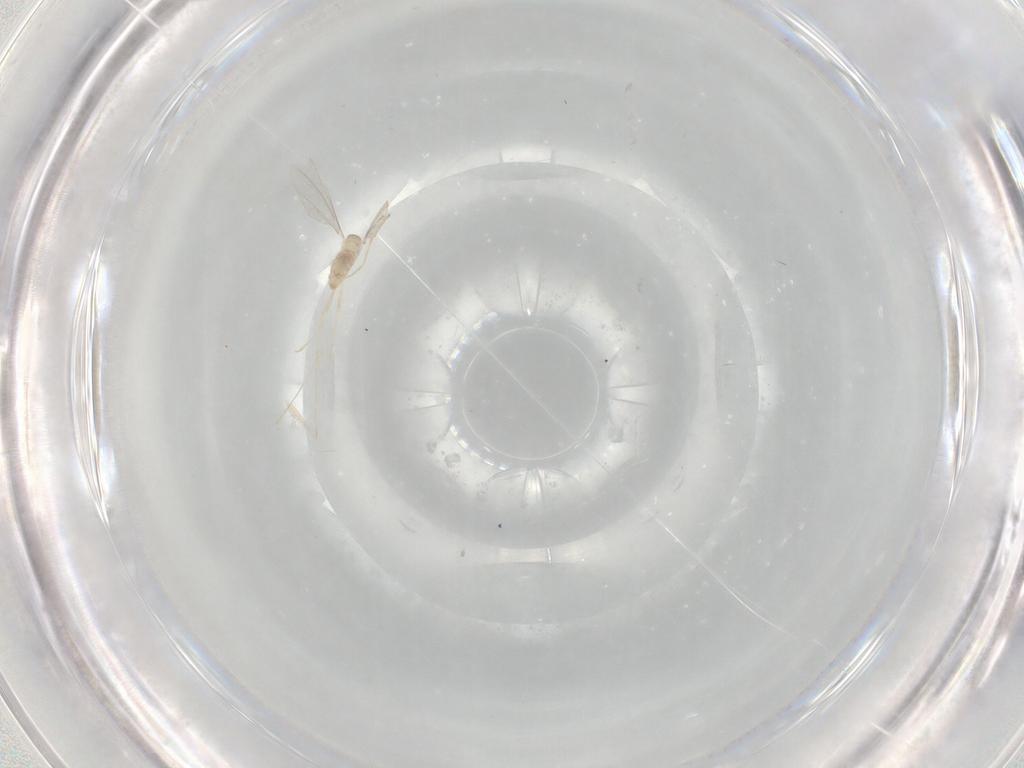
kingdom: Animalia
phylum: Arthropoda
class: Insecta
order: Diptera
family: Cecidomyiidae
